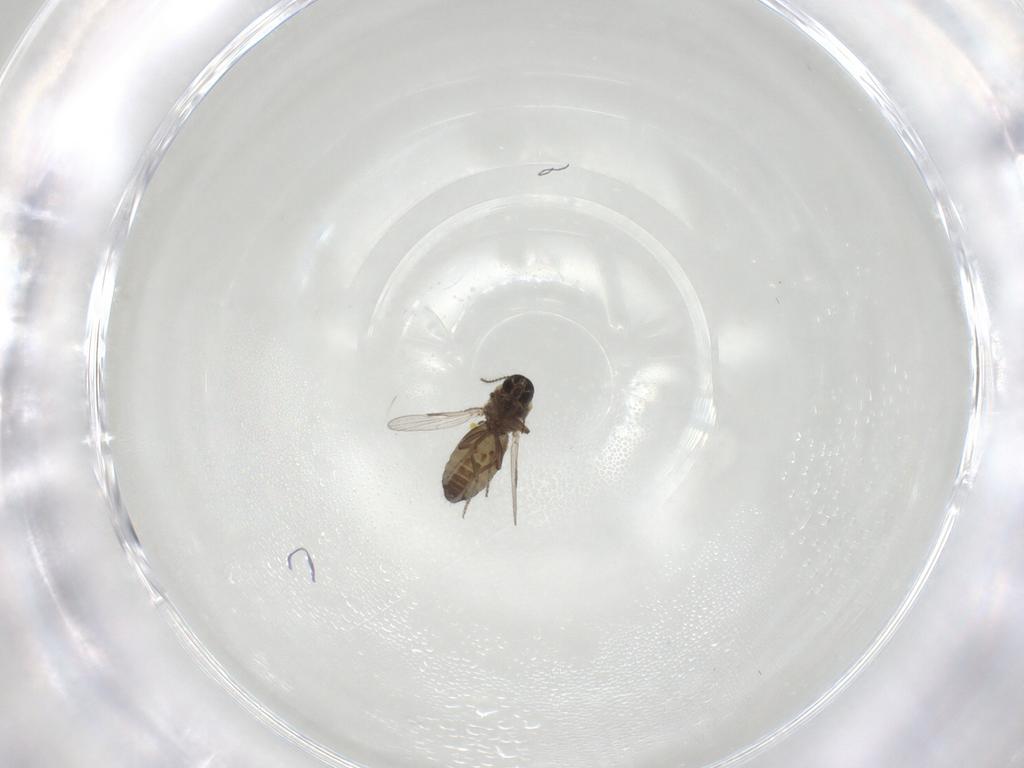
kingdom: Animalia
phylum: Arthropoda
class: Insecta
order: Diptera
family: Ceratopogonidae
